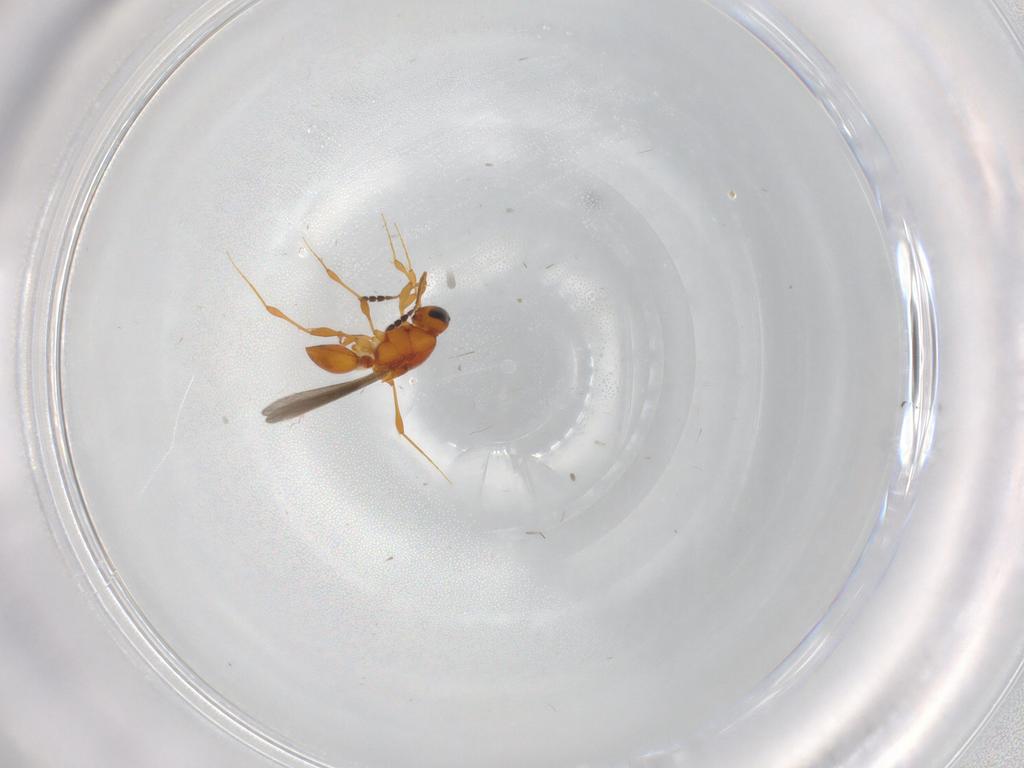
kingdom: Animalia
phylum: Arthropoda
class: Insecta
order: Hymenoptera
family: Platygastridae
